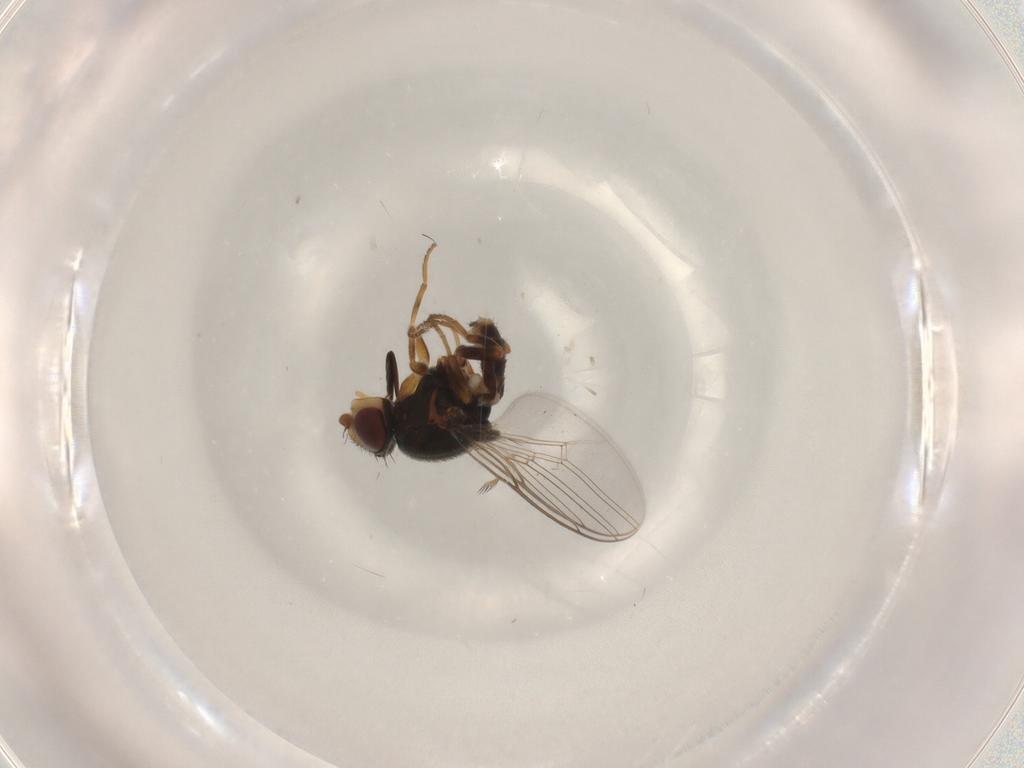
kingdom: Animalia
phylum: Arthropoda
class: Insecta
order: Diptera
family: Chloropidae
